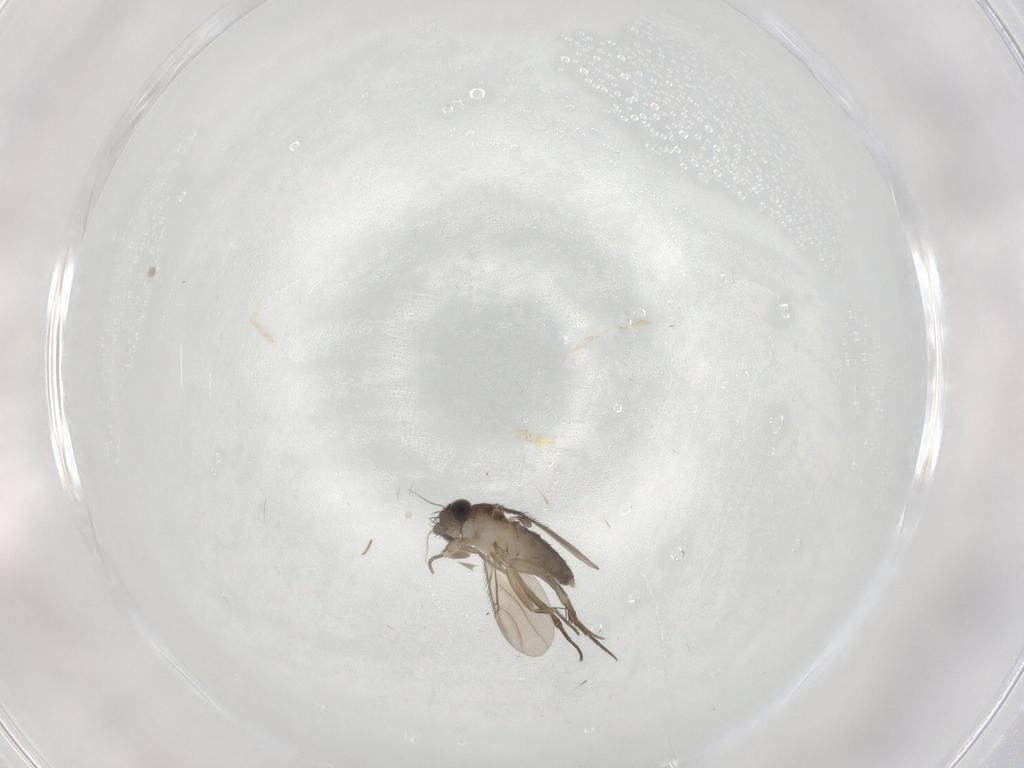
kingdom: Animalia
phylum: Arthropoda
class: Insecta
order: Diptera
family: Phoridae
